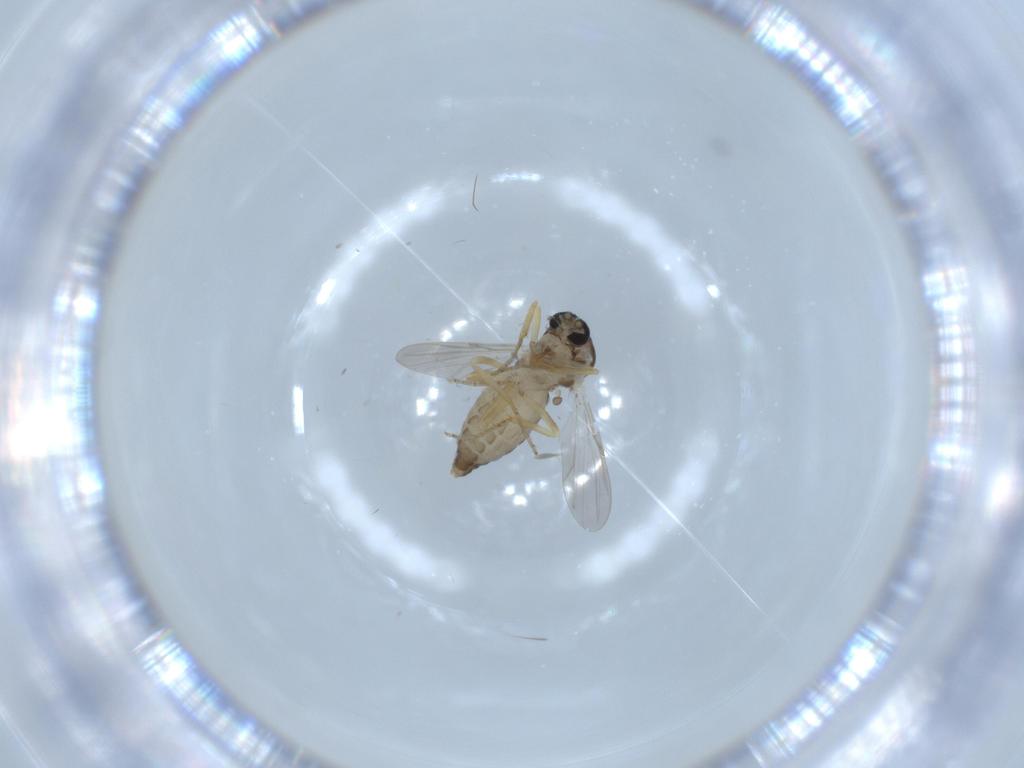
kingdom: Animalia
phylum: Arthropoda
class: Insecta
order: Diptera
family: Ceratopogonidae
